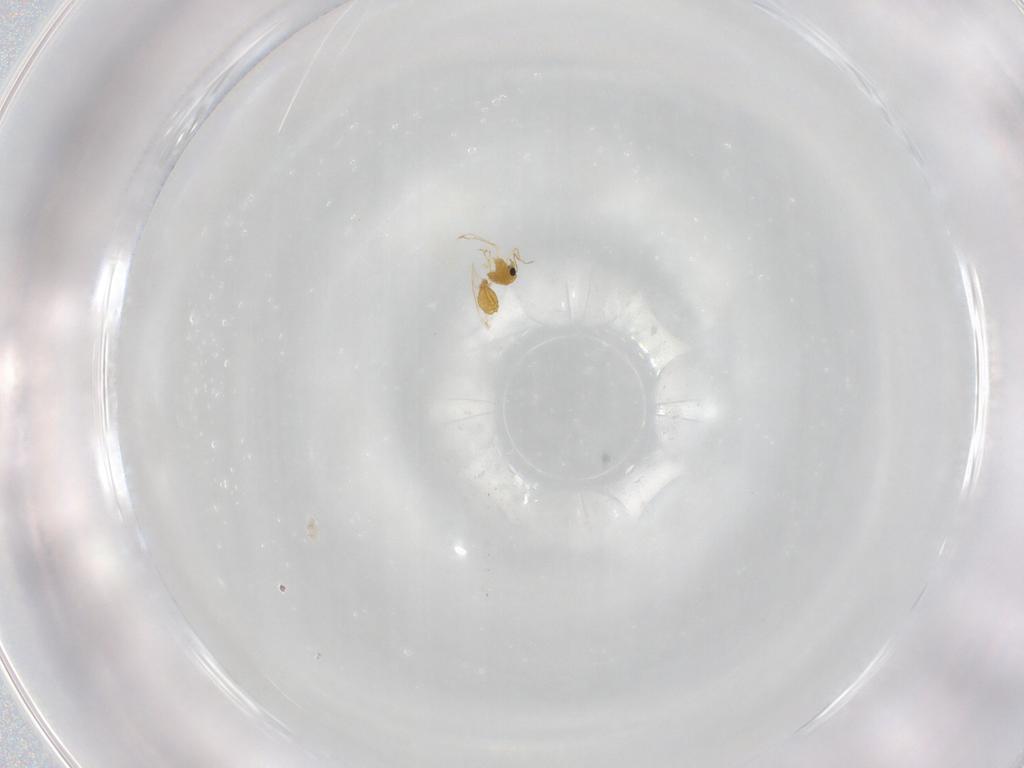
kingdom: Animalia
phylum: Arthropoda
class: Insecta
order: Diptera
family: Chironomidae
